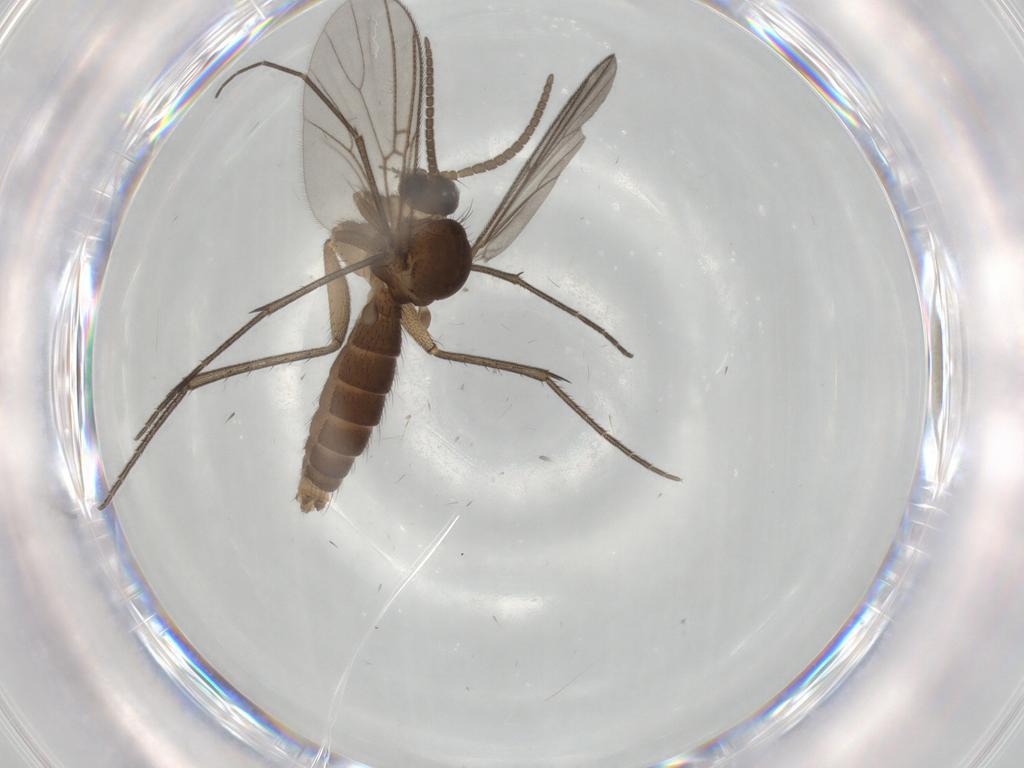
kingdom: Animalia
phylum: Arthropoda
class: Insecta
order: Diptera
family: Mycetophilidae
